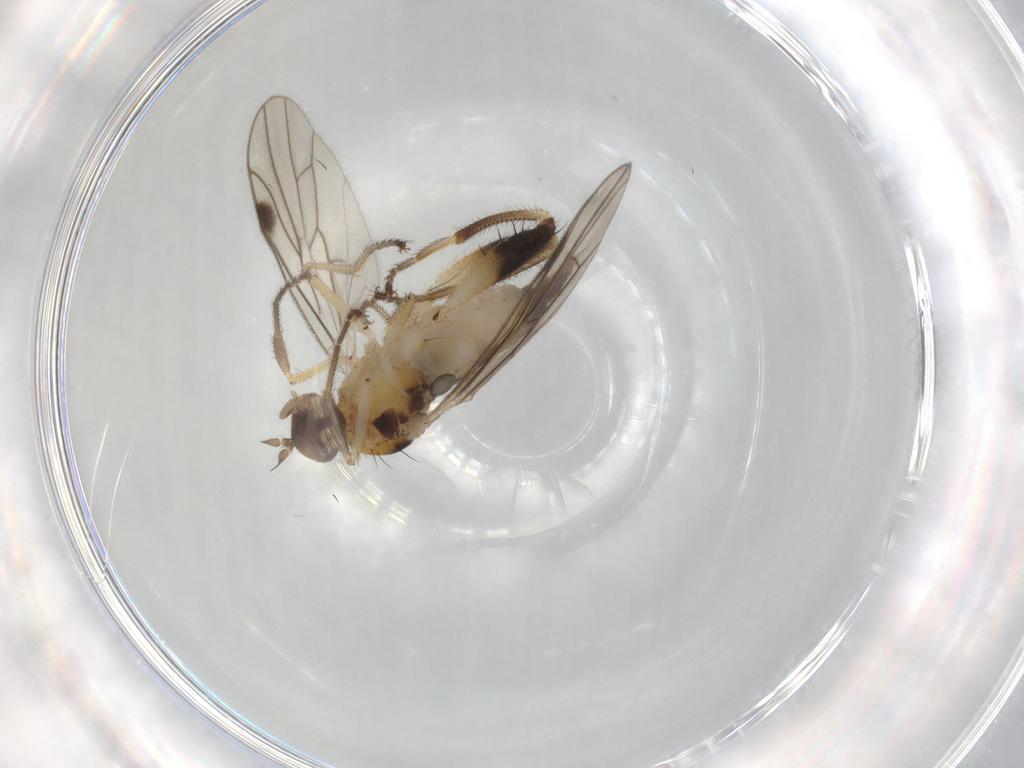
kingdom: Animalia
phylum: Arthropoda
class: Insecta
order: Diptera
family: Hybotidae
